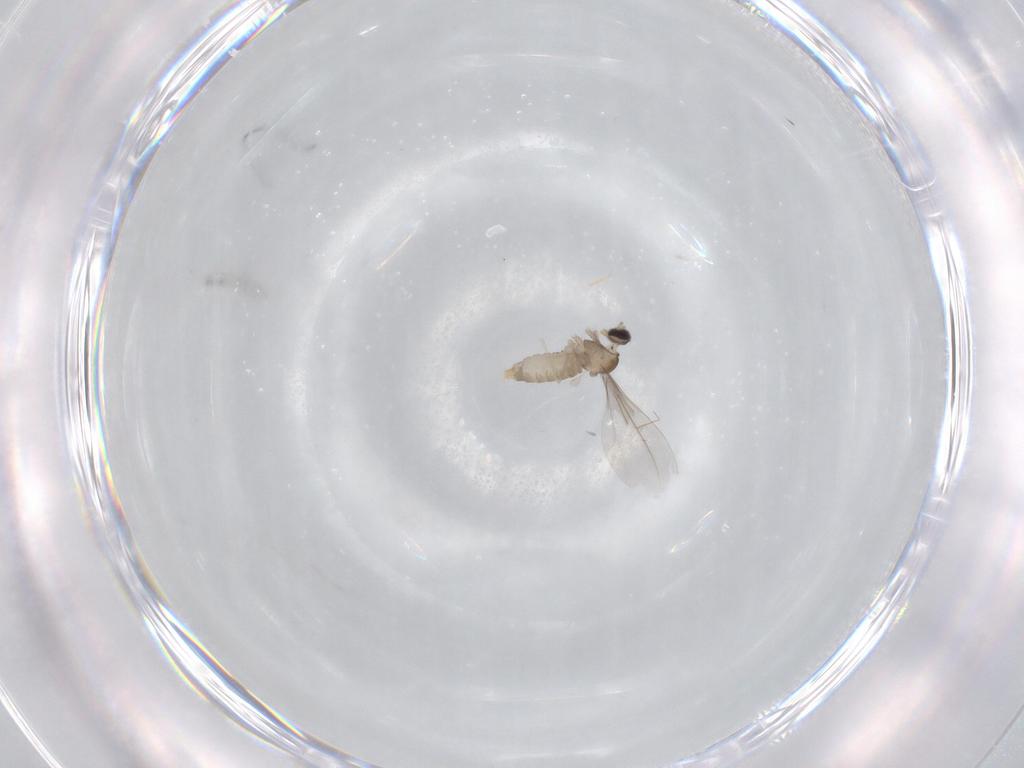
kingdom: Animalia
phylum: Arthropoda
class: Insecta
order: Diptera
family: Cecidomyiidae
